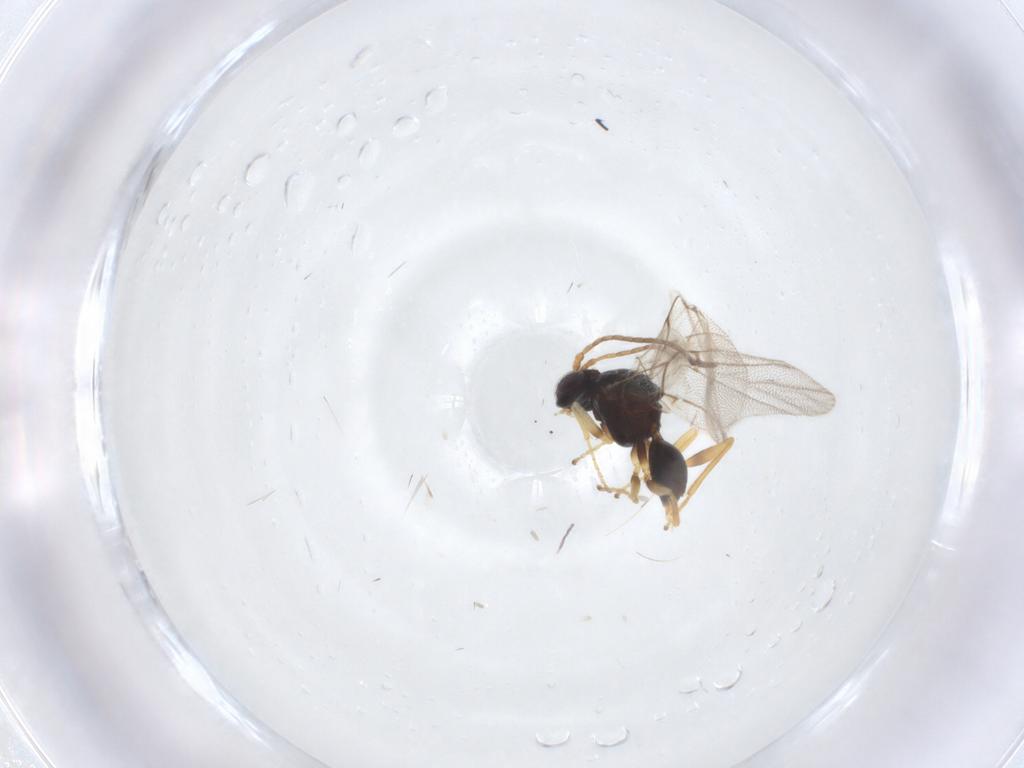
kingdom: Animalia
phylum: Arthropoda
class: Insecta
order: Hymenoptera
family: Cynipidae
